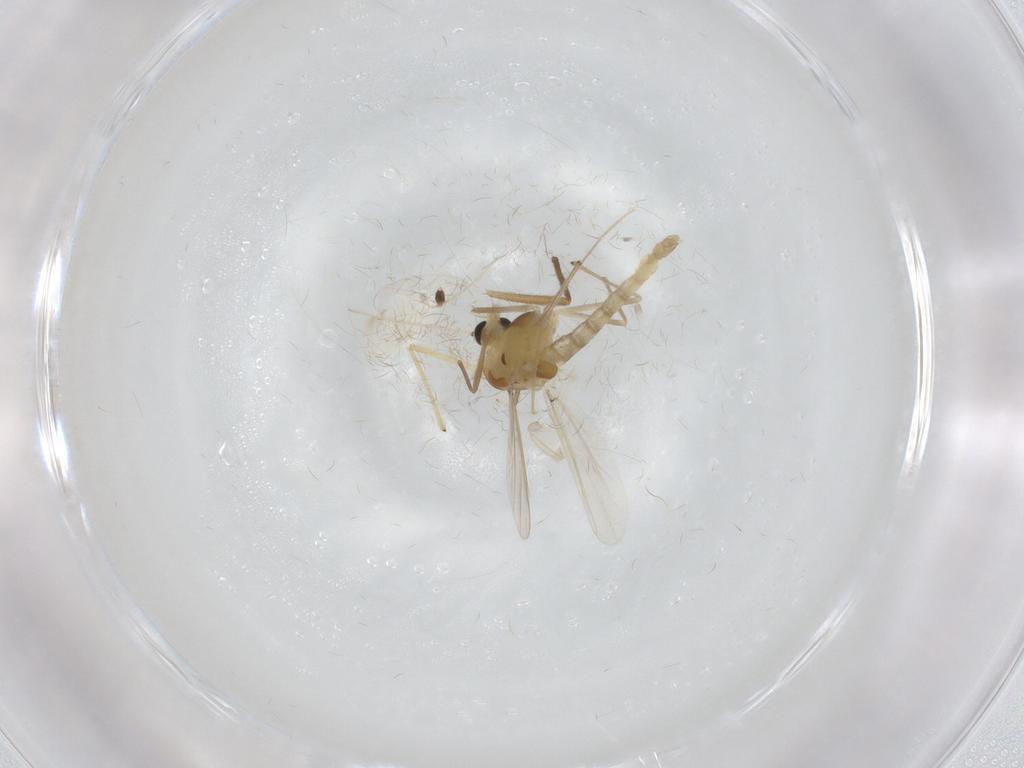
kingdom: Animalia
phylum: Arthropoda
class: Insecta
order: Diptera
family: Chironomidae
